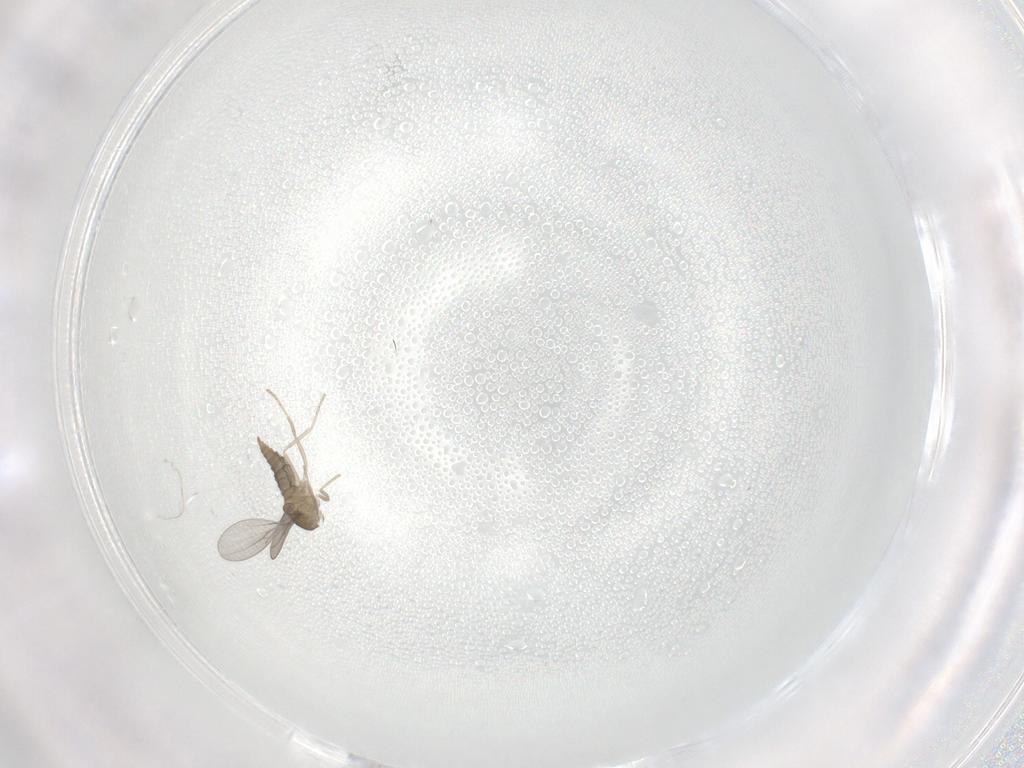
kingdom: Animalia
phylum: Arthropoda
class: Insecta
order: Diptera
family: Cecidomyiidae
